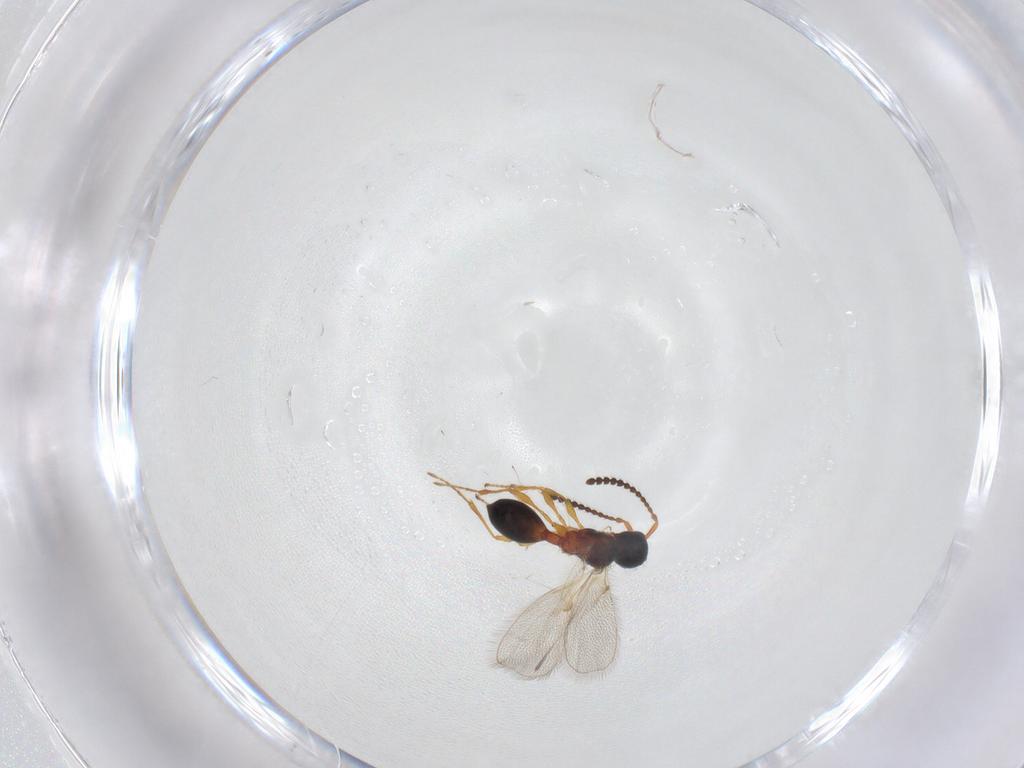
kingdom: Animalia
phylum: Arthropoda
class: Insecta
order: Hymenoptera
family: Diapriidae
